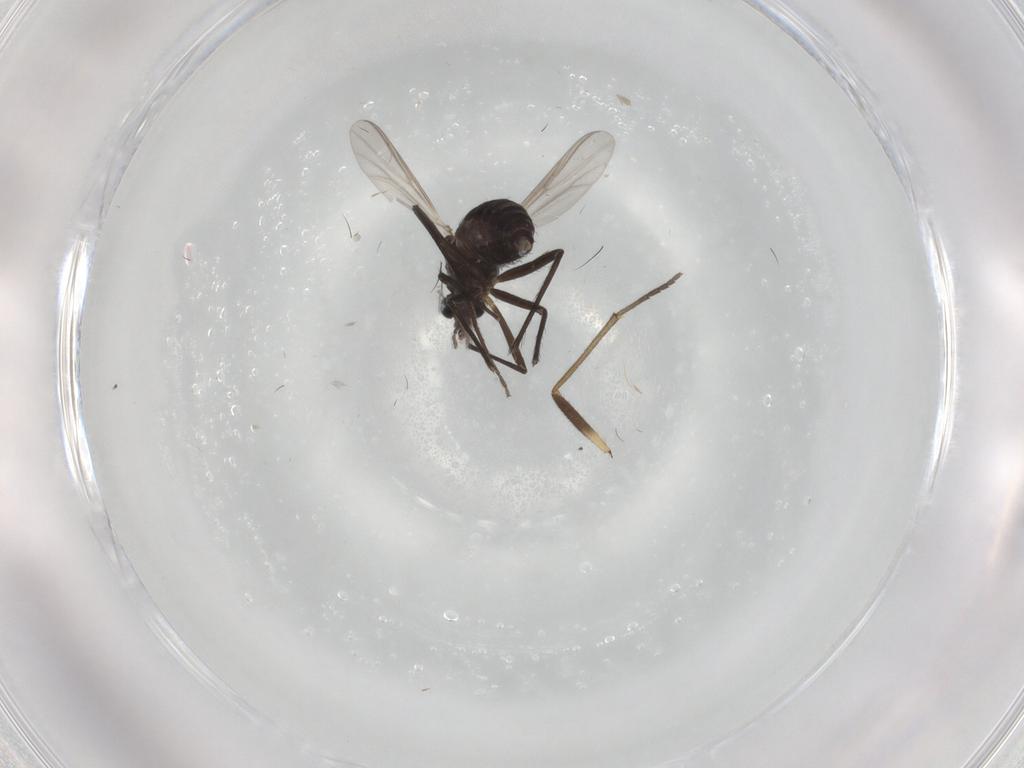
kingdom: Animalia
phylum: Arthropoda
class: Insecta
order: Diptera
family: Chironomidae
